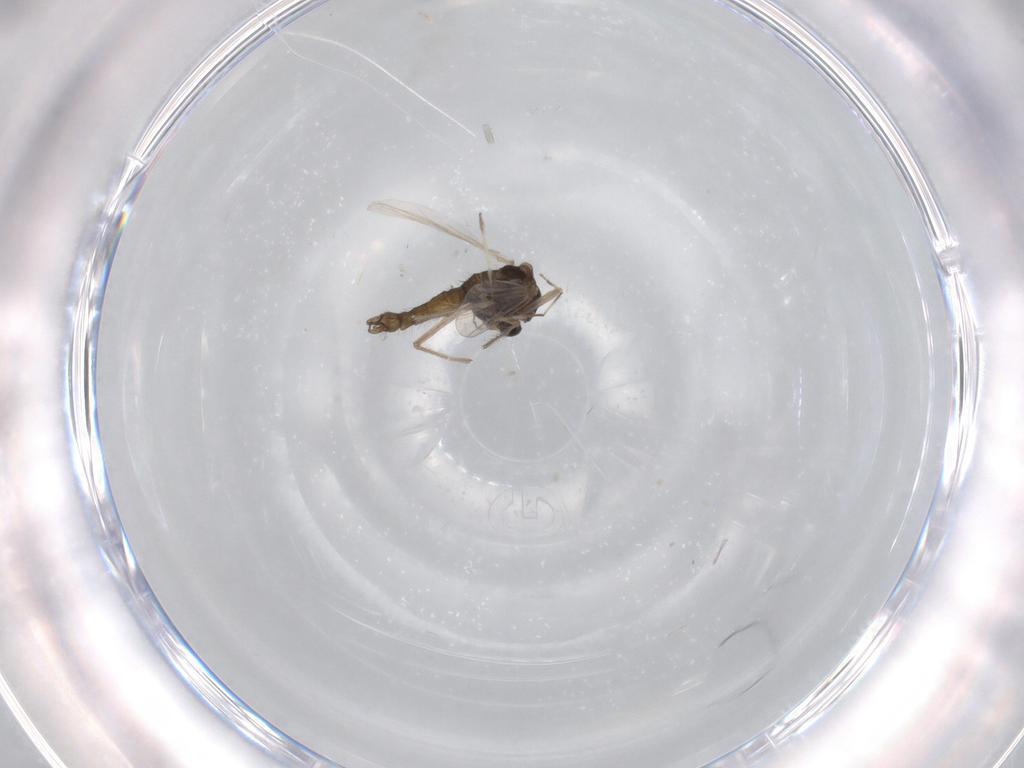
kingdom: Animalia
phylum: Arthropoda
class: Insecta
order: Diptera
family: Chironomidae
